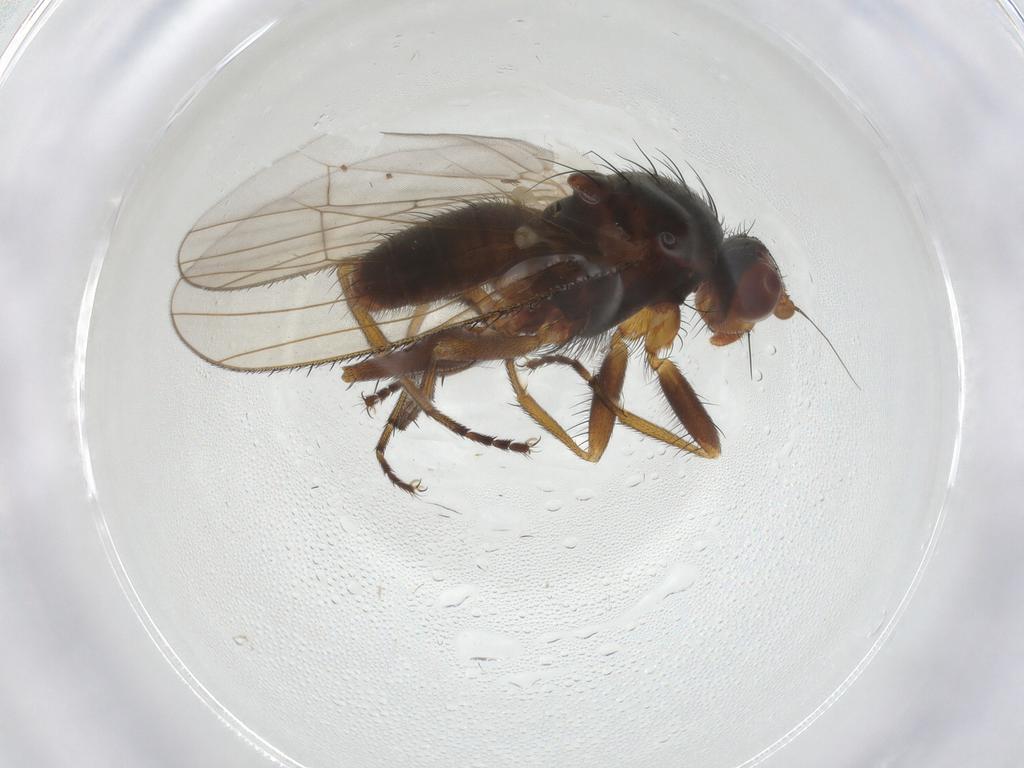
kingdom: Animalia
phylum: Arthropoda
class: Insecta
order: Diptera
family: Heleomyzidae
